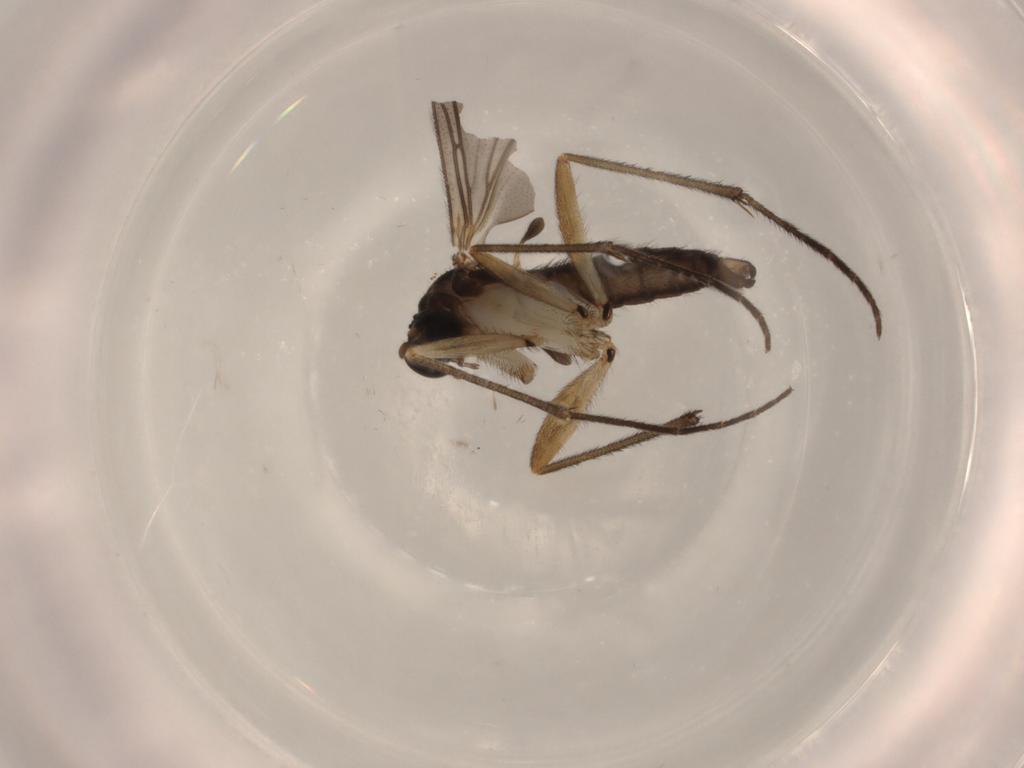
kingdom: Animalia
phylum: Arthropoda
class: Insecta
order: Diptera
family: Sciaridae
